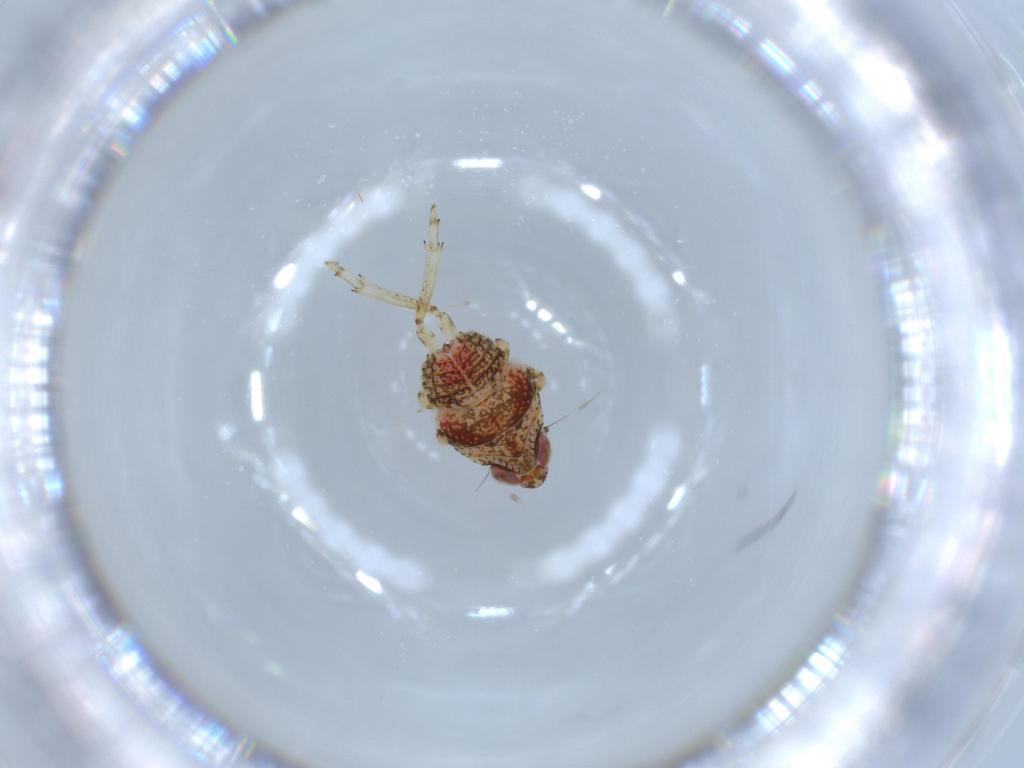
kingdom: Animalia
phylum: Arthropoda
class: Insecta
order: Hemiptera
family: Issidae
